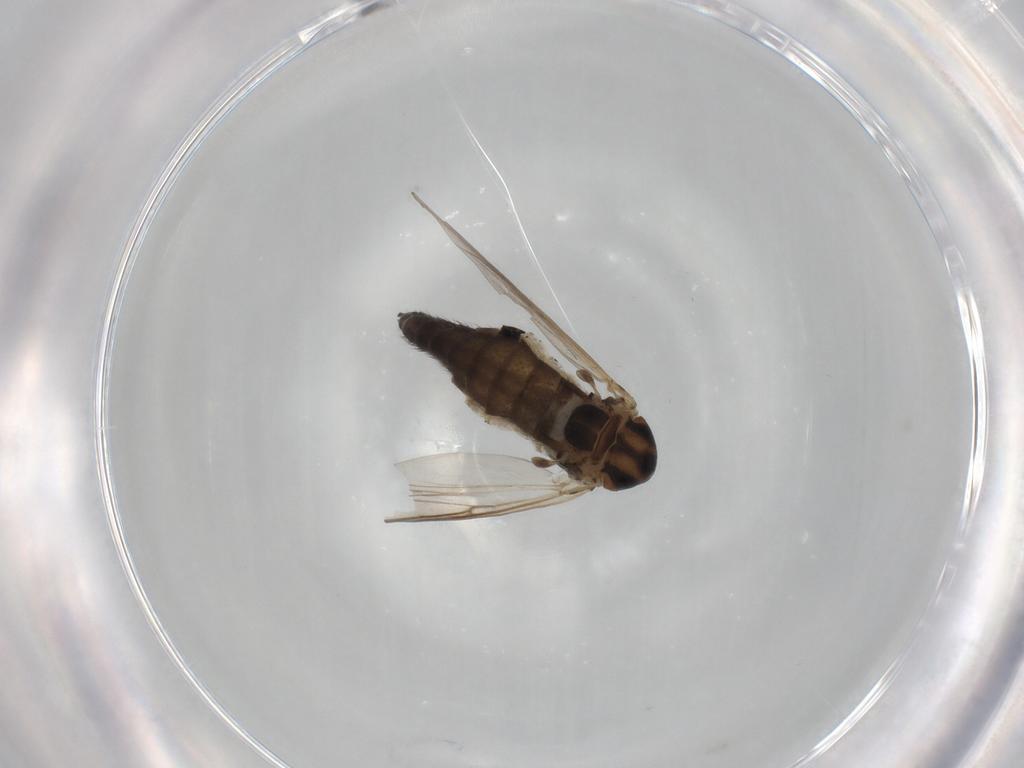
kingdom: Animalia
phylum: Arthropoda
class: Insecta
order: Diptera
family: Chironomidae
